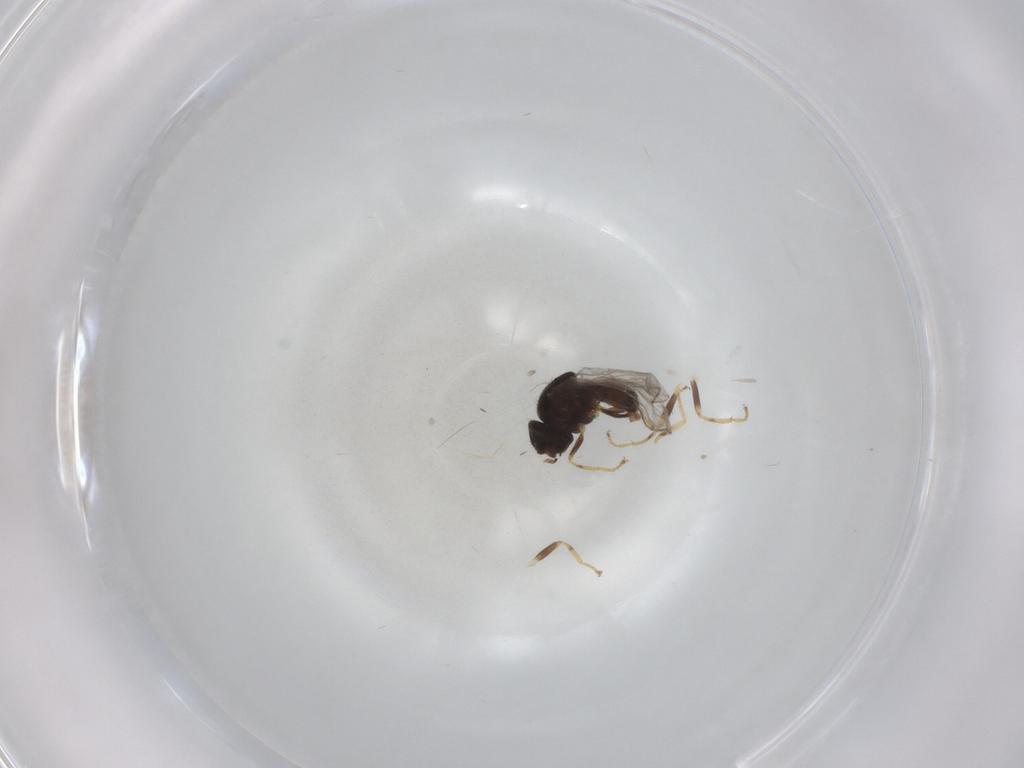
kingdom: Animalia
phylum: Arthropoda
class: Insecta
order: Diptera
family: Chloropidae
